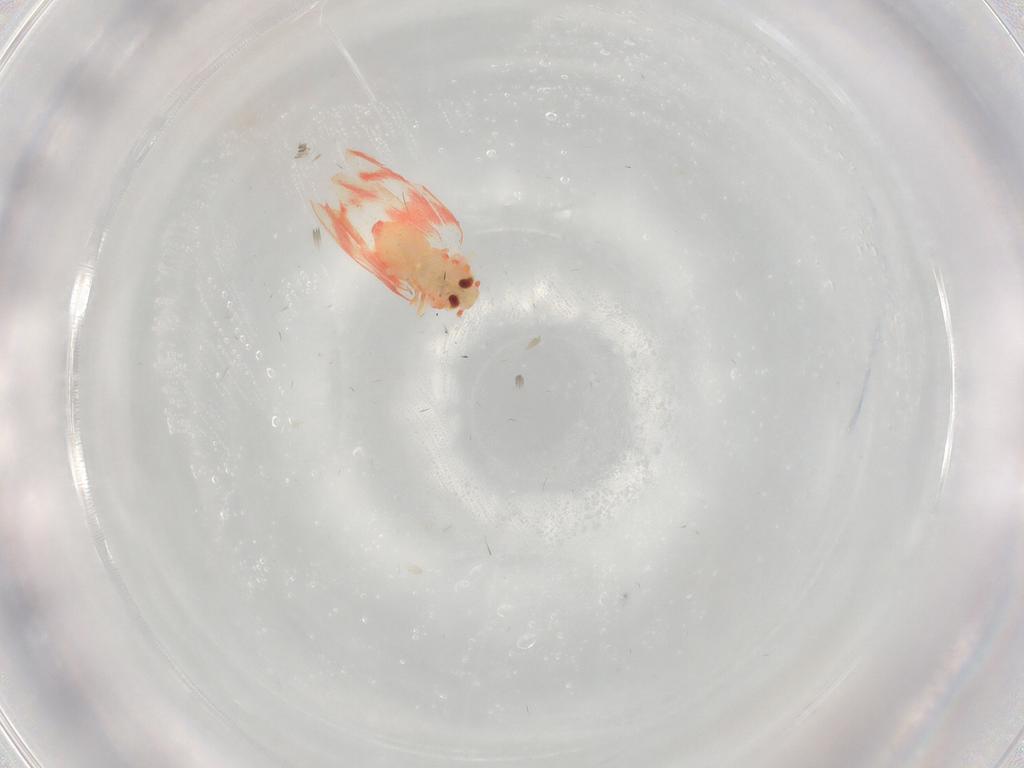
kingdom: Animalia
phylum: Arthropoda
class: Insecta
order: Hemiptera
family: Aleyrodidae
